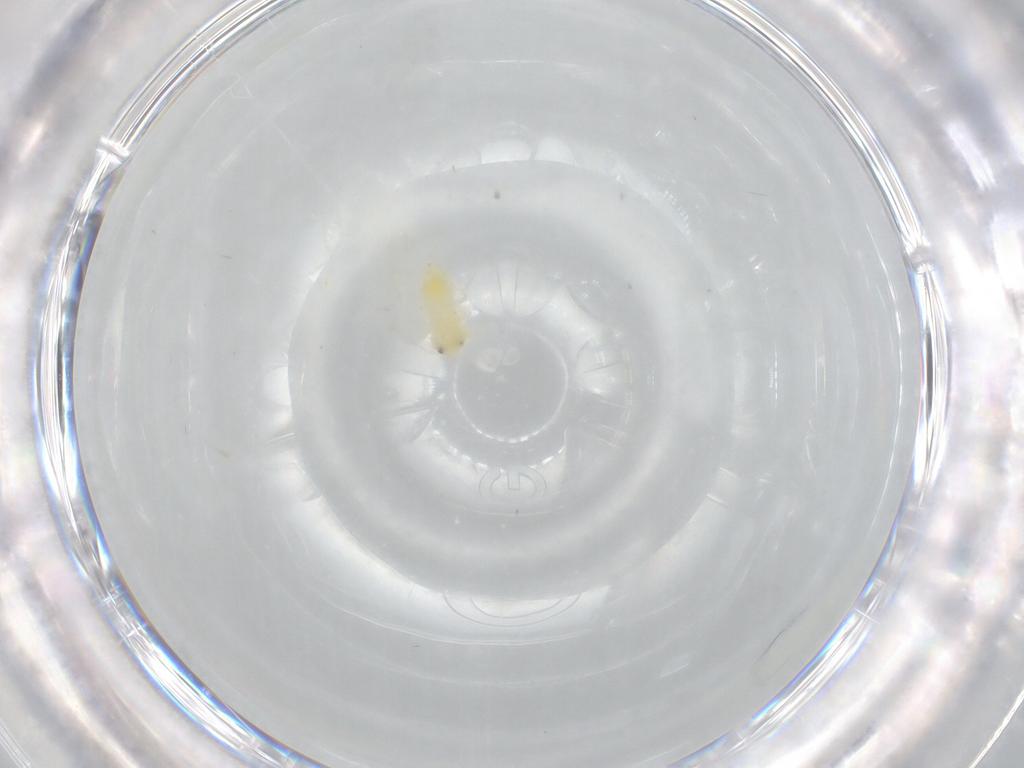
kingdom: Animalia
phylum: Arthropoda
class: Insecta
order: Hemiptera
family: Aleyrodidae
